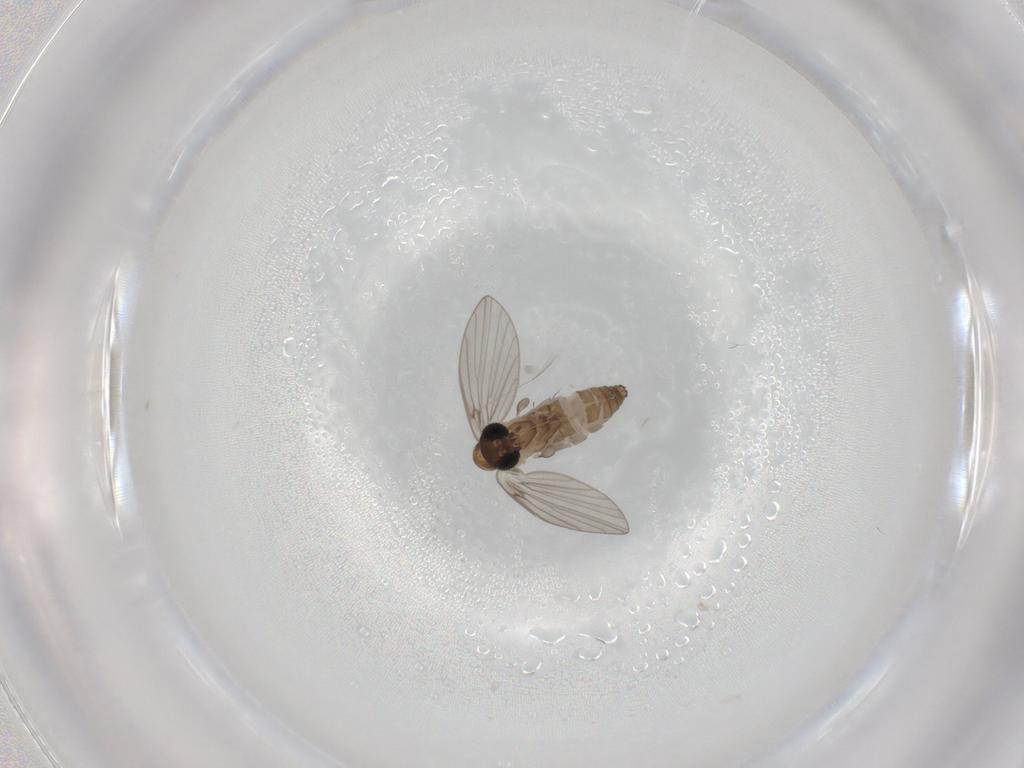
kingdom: Animalia
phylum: Arthropoda
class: Insecta
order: Diptera
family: Psychodidae
